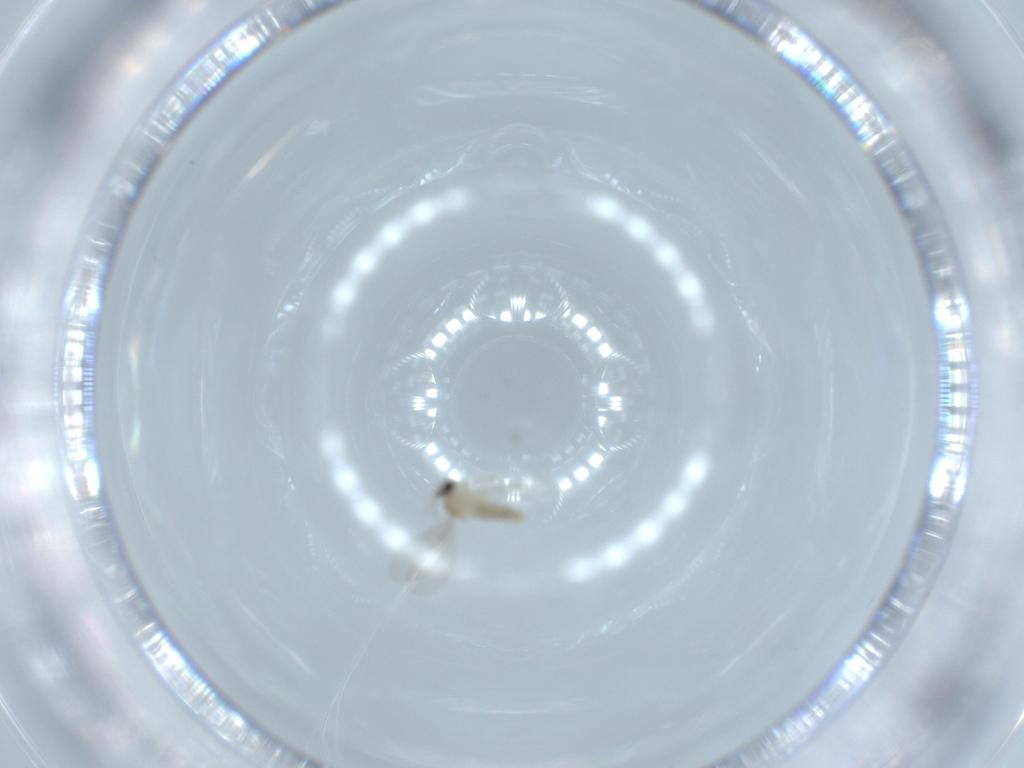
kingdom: Animalia
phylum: Arthropoda
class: Insecta
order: Diptera
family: Cecidomyiidae
